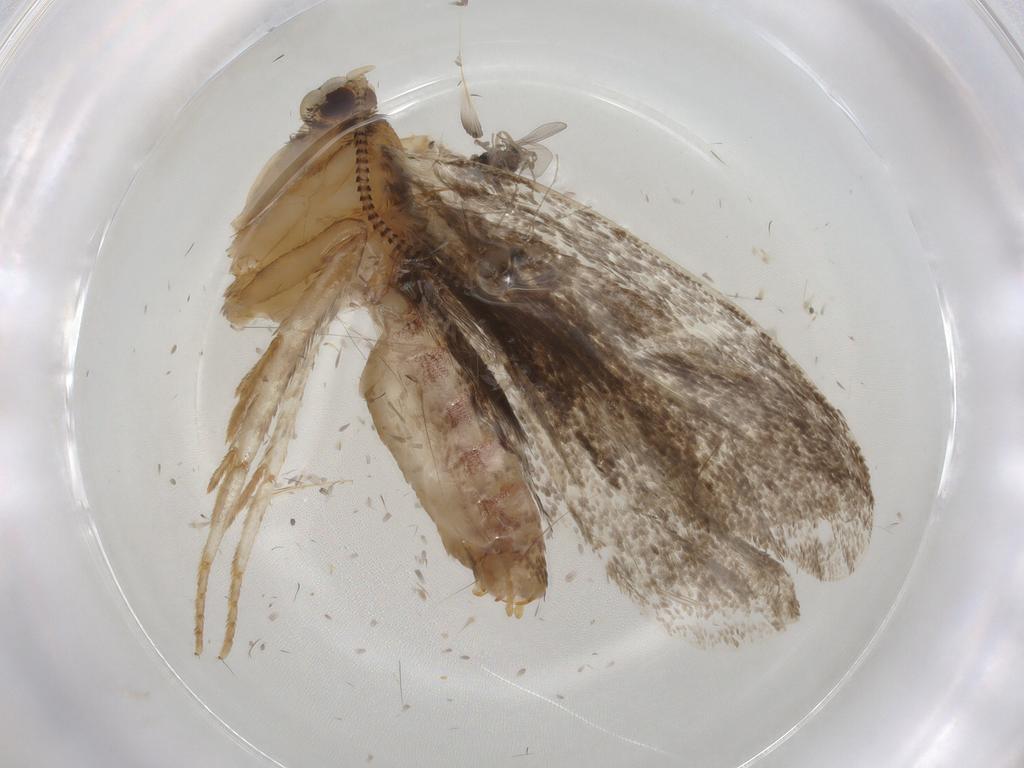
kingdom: Animalia
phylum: Arthropoda
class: Insecta
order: Lepidoptera
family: Tineidae
